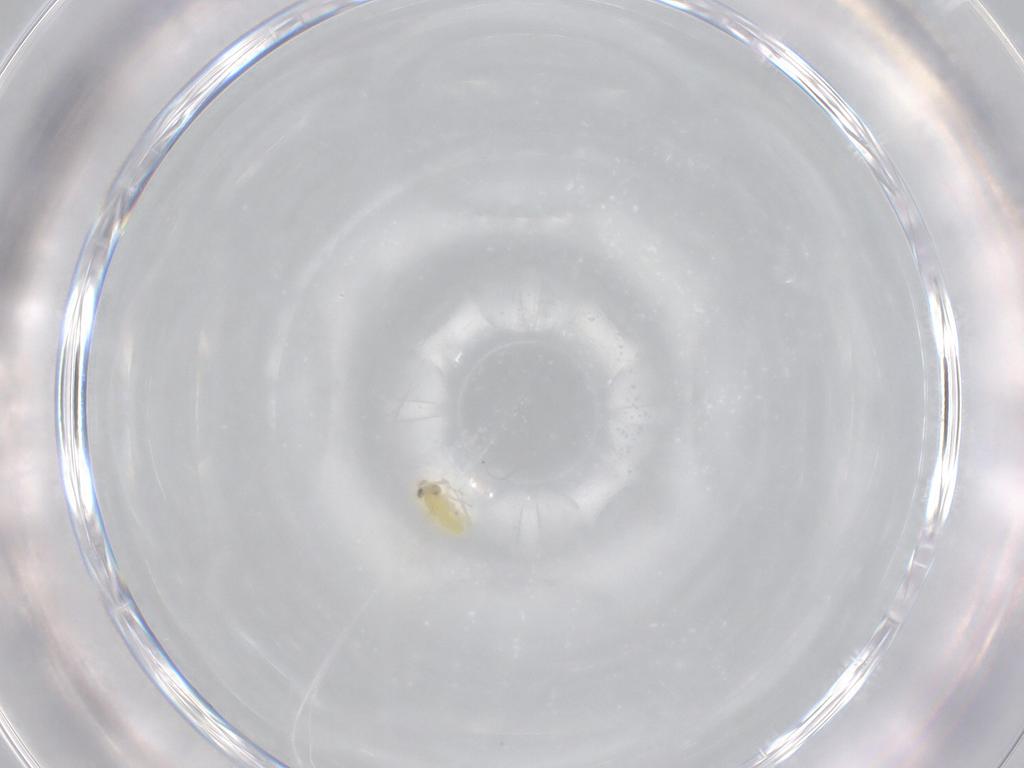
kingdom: Animalia
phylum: Arthropoda
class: Insecta
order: Hymenoptera
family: Aphelinidae
